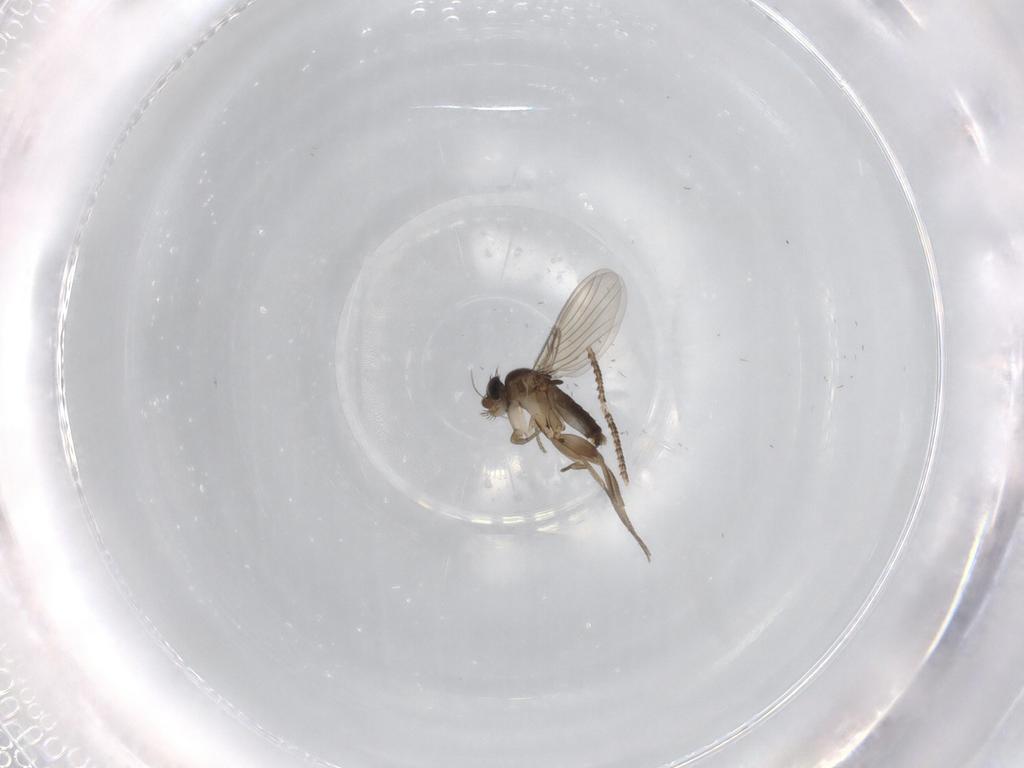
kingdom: Animalia
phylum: Arthropoda
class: Insecta
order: Diptera
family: Phoridae
